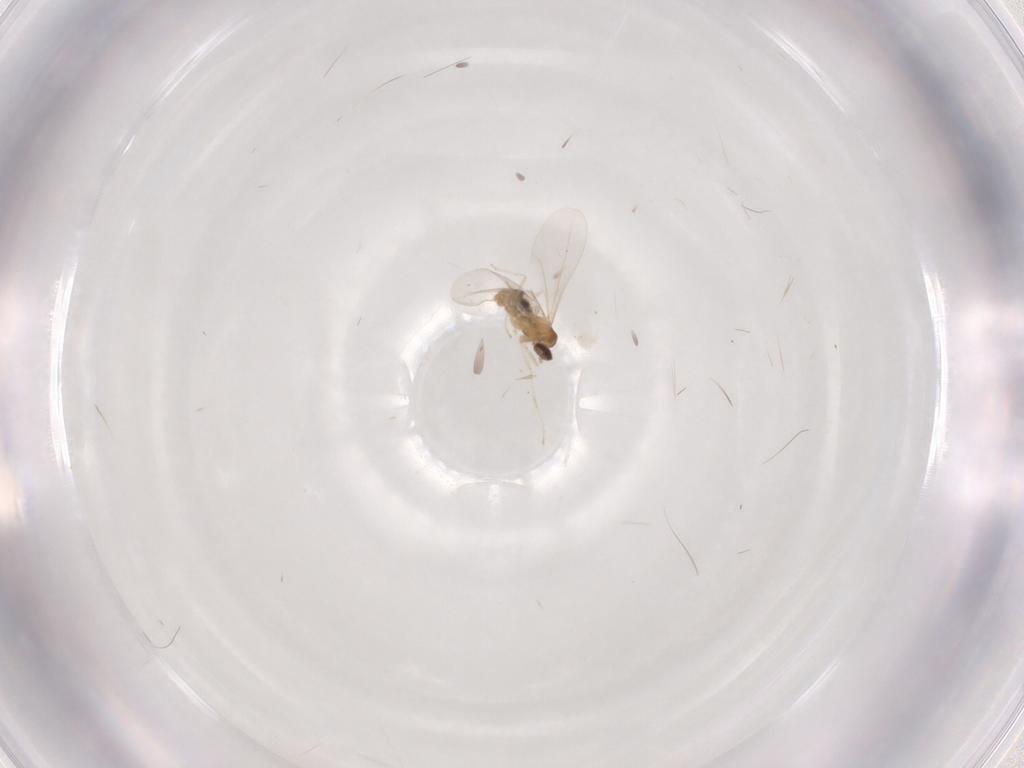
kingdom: Animalia
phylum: Arthropoda
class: Insecta
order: Diptera
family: Cecidomyiidae
